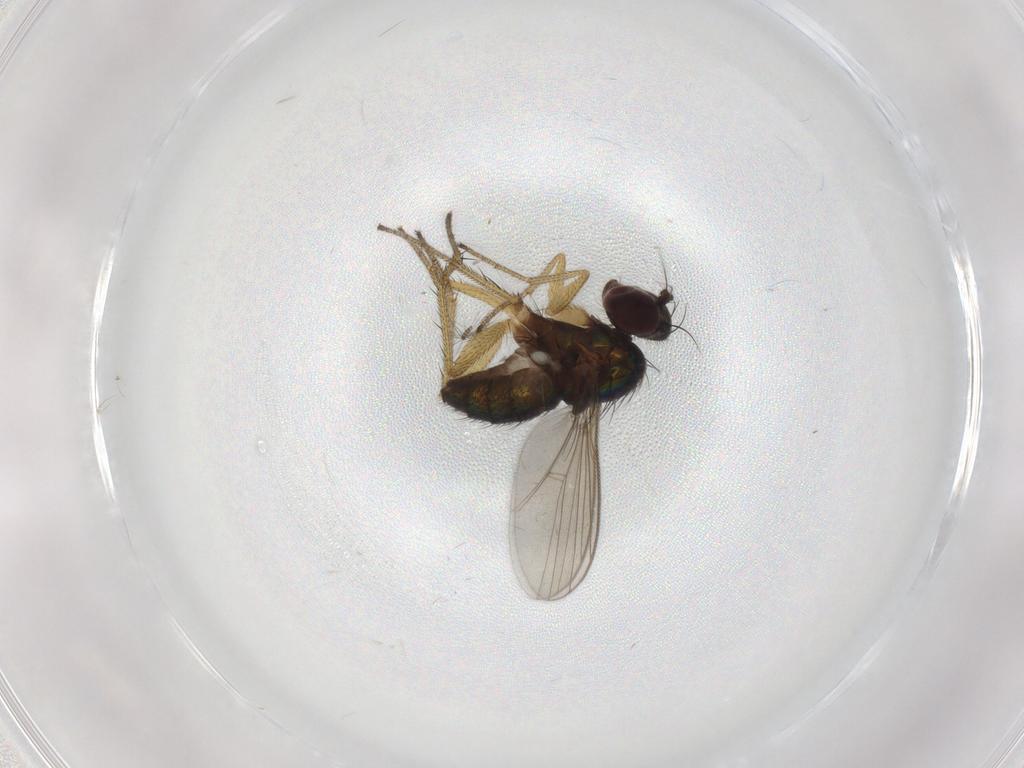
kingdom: Animalia
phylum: Arthropoda
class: Insecta
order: Diptera
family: Chironomidae
